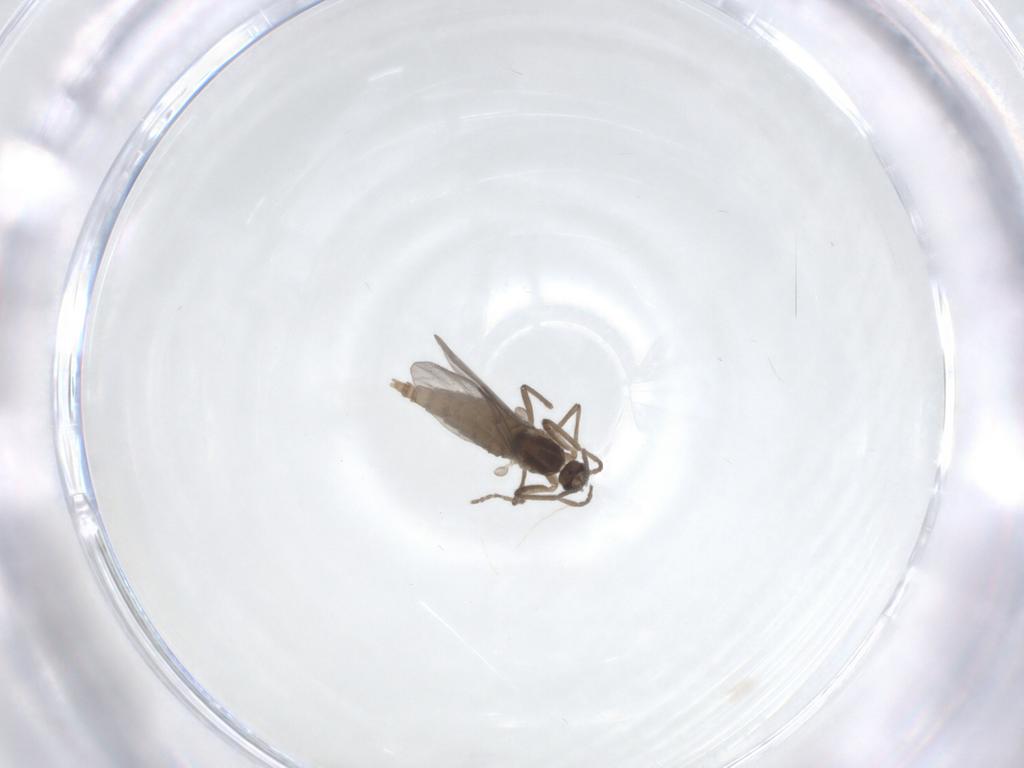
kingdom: Animalia
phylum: Arthropoda
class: Insecta
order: Diptera
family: Cecidomyiidae
